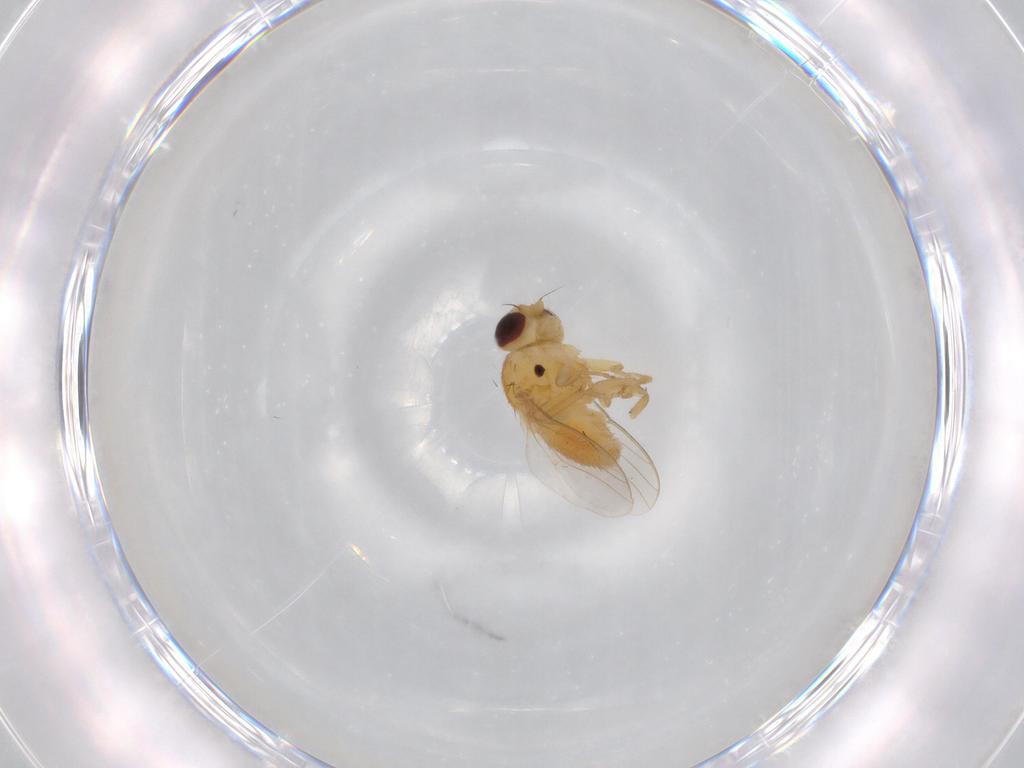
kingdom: Animalia
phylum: Arthropoda
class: Insecta
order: Diptera
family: Chloropidae
